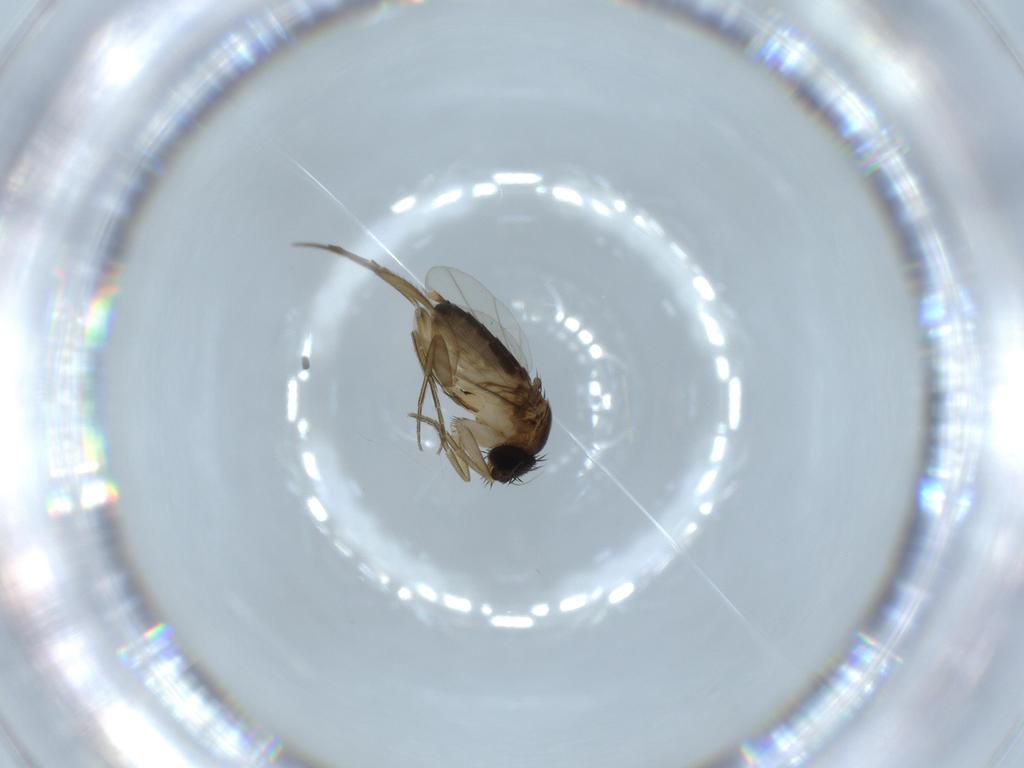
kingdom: Animalia
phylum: Arthropoda
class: Insecta
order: Diptera
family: Phoridae
